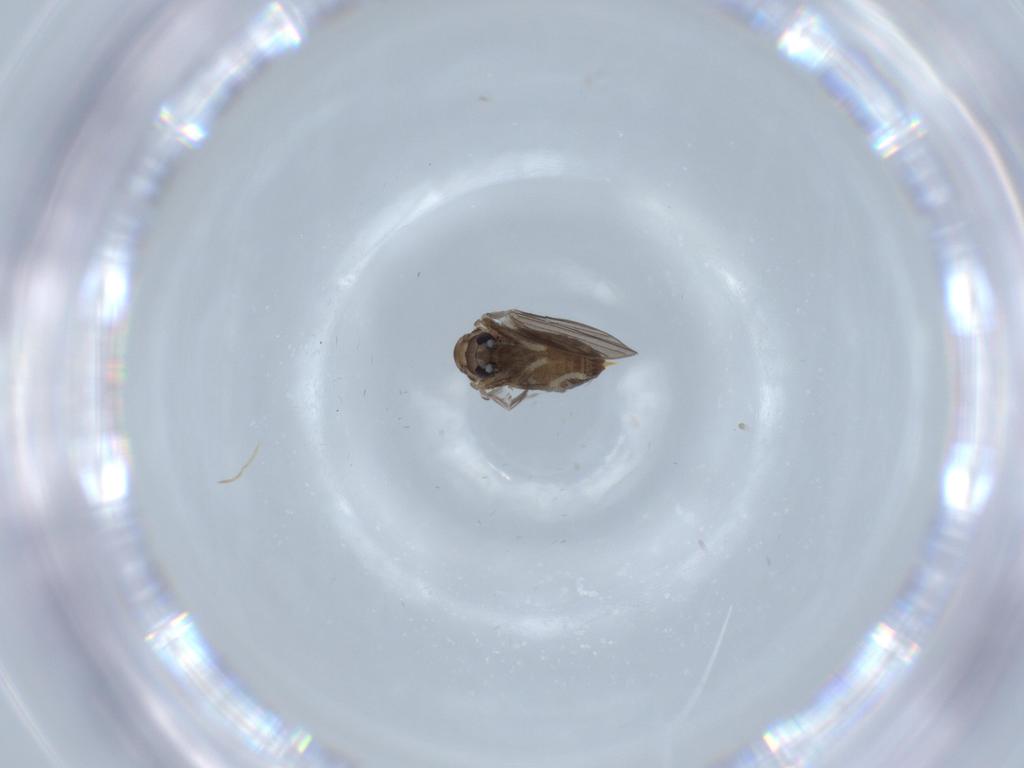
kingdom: Animalia
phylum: Arthropoda
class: Insecta
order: Diptera
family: Psychodidae
